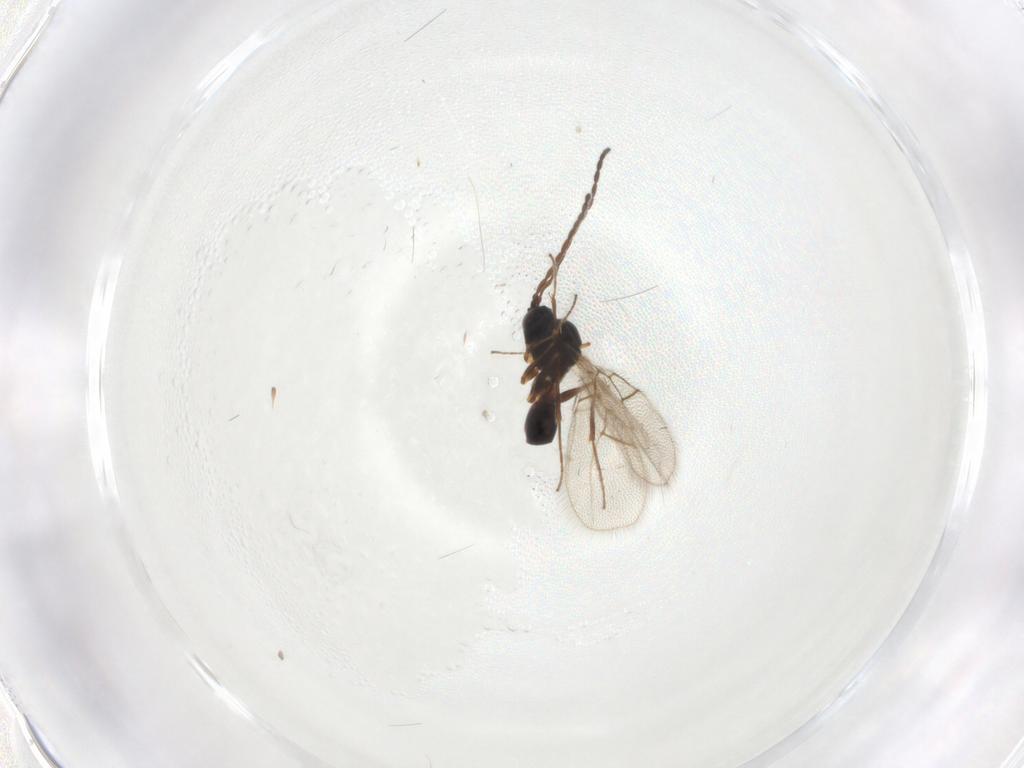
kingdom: Animalia
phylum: Arthropoda
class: Insecta
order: Hymenoptera
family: Figitidae
